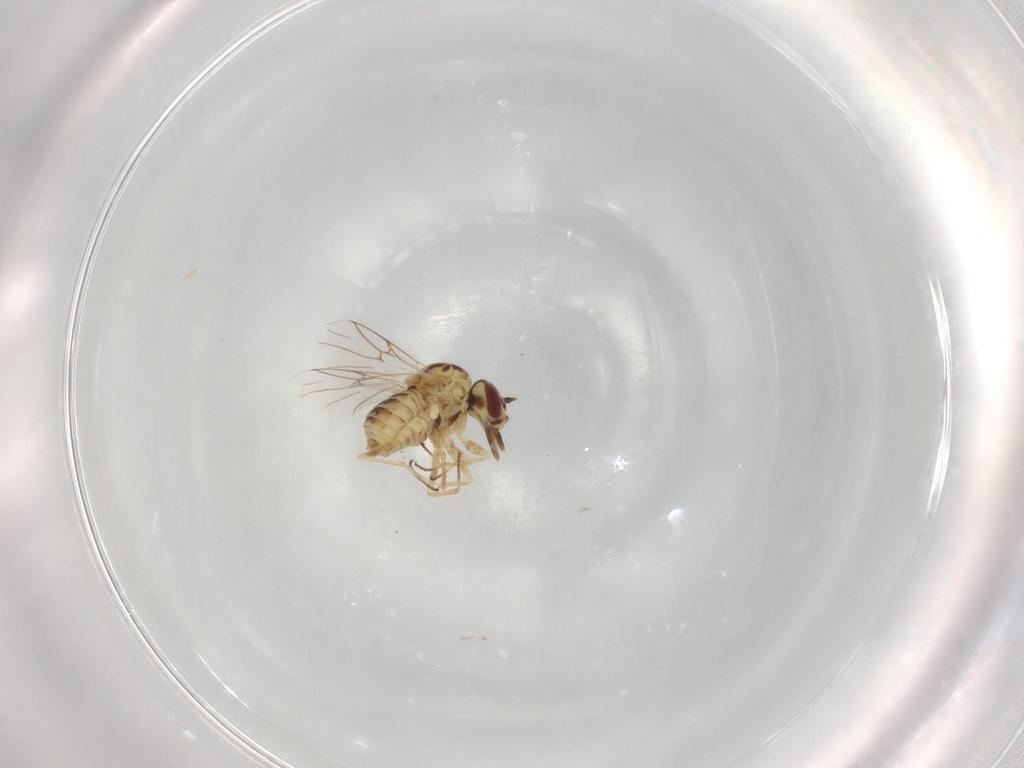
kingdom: Animalia
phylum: Arthropoda
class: Insecta
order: Diptera
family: Bombyliidae
